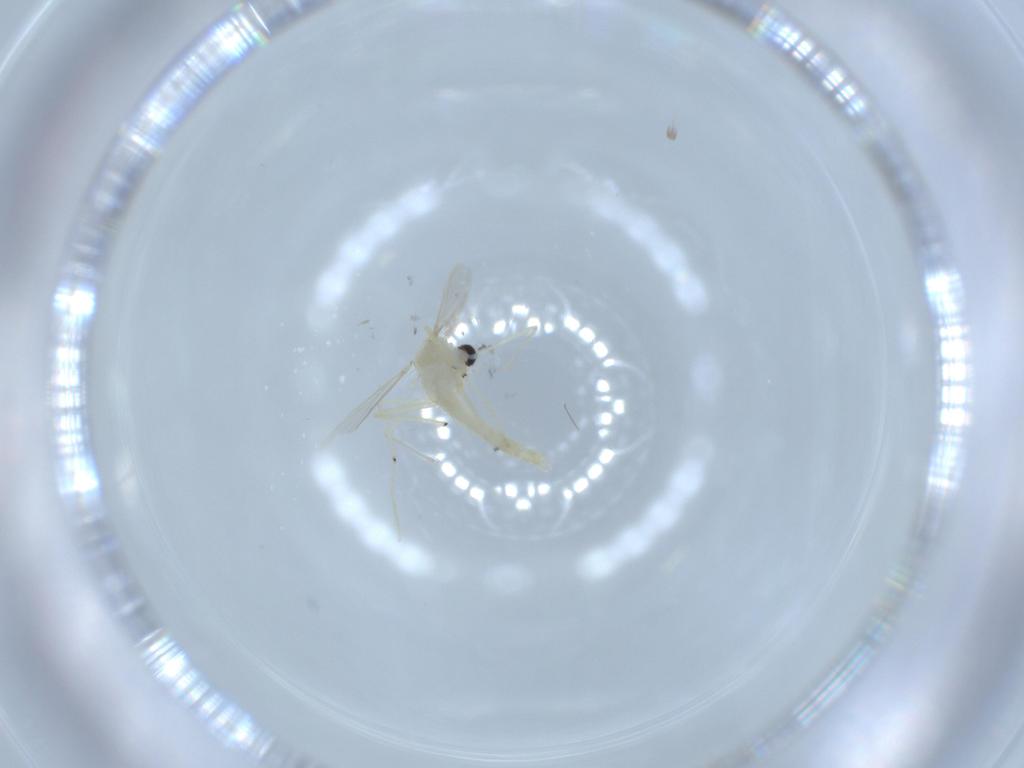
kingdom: Animalia
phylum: Arthropoda
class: Insecta
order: Diptera
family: Chironomidae
